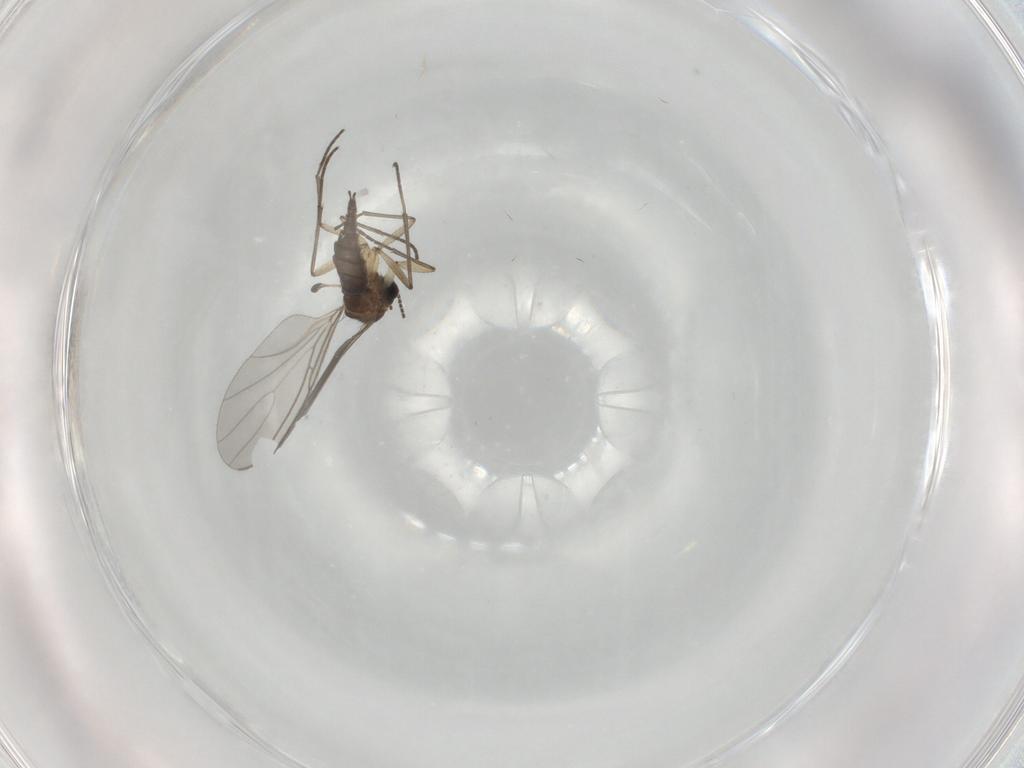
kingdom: Animalia
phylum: Arthropoda
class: Insecta
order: Diptera
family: Sciaridae
